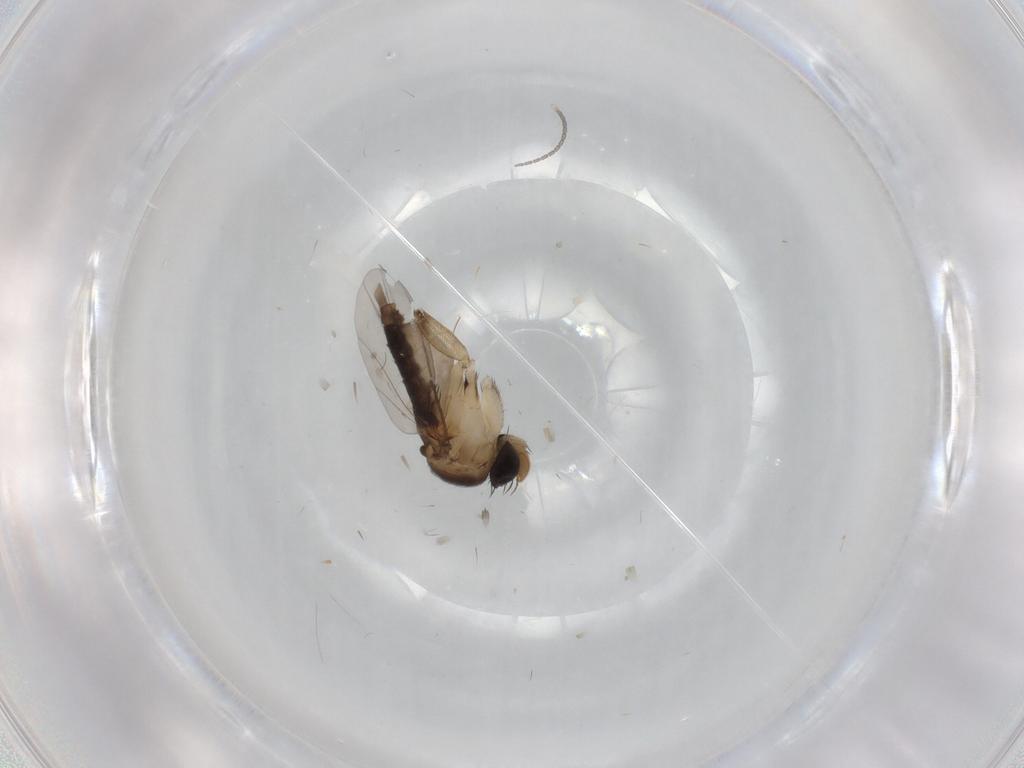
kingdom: Animalia
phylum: Arthropoda
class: Insecta
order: Diptera
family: Phoridae
